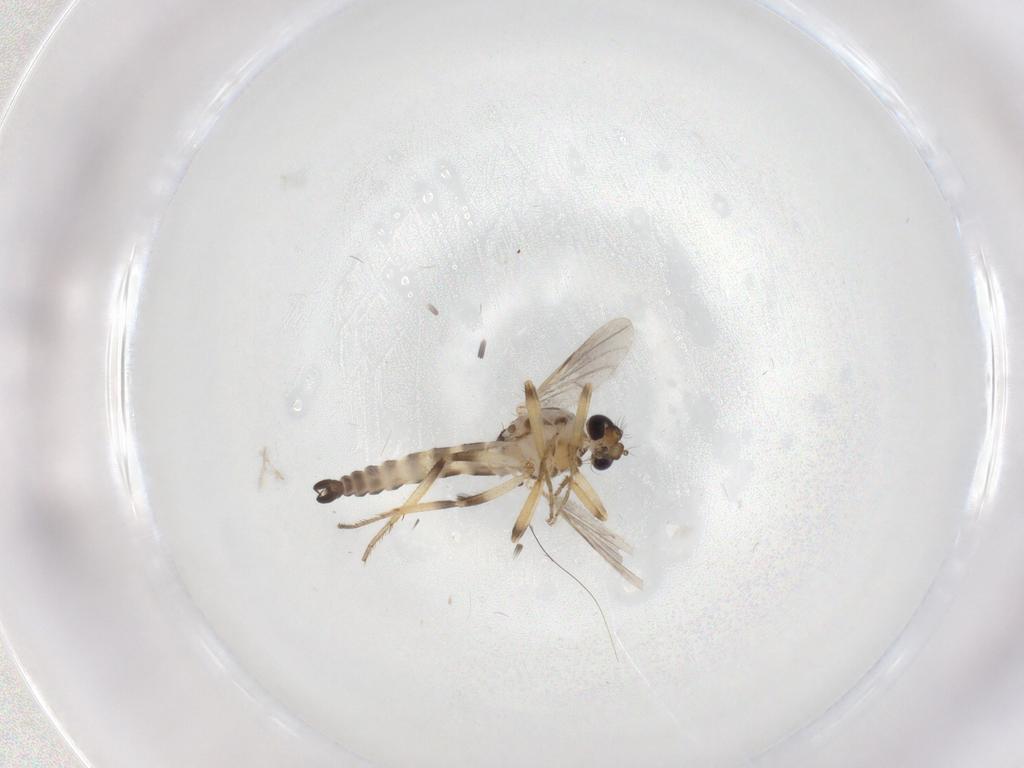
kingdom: Animalia
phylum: Arthropoda
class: Insecta
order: Diptera
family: Ceratopogonidae
